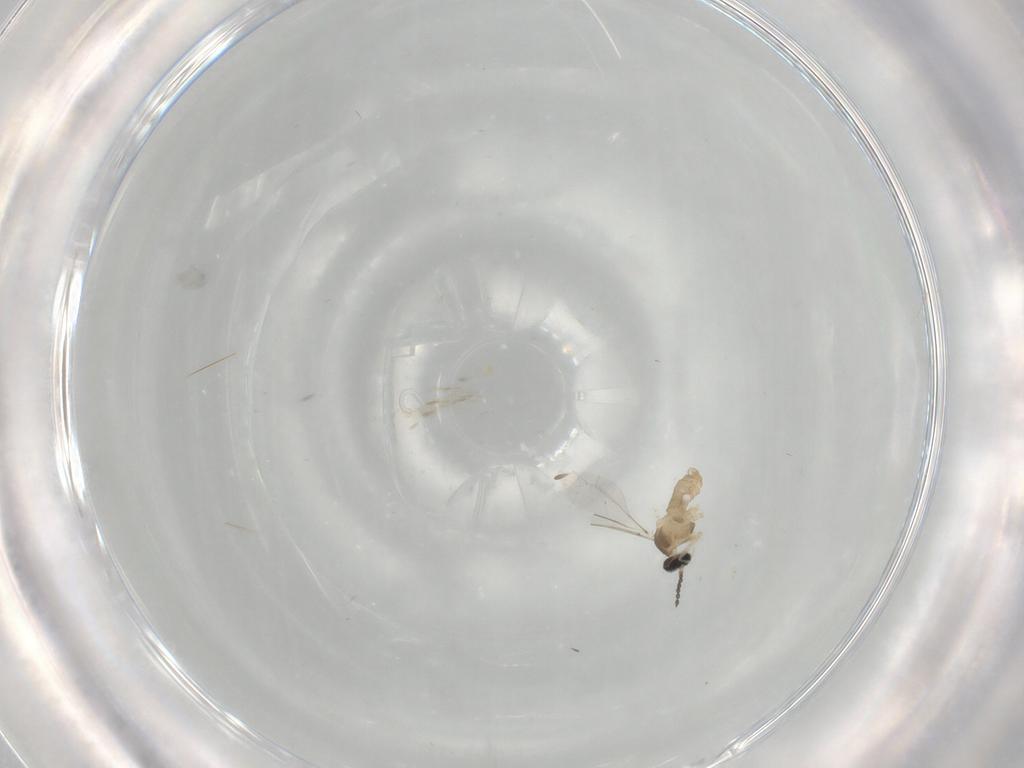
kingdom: Animalia
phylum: Arthropoda
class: Insecta
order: Diptera
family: Cecidomyiidae
